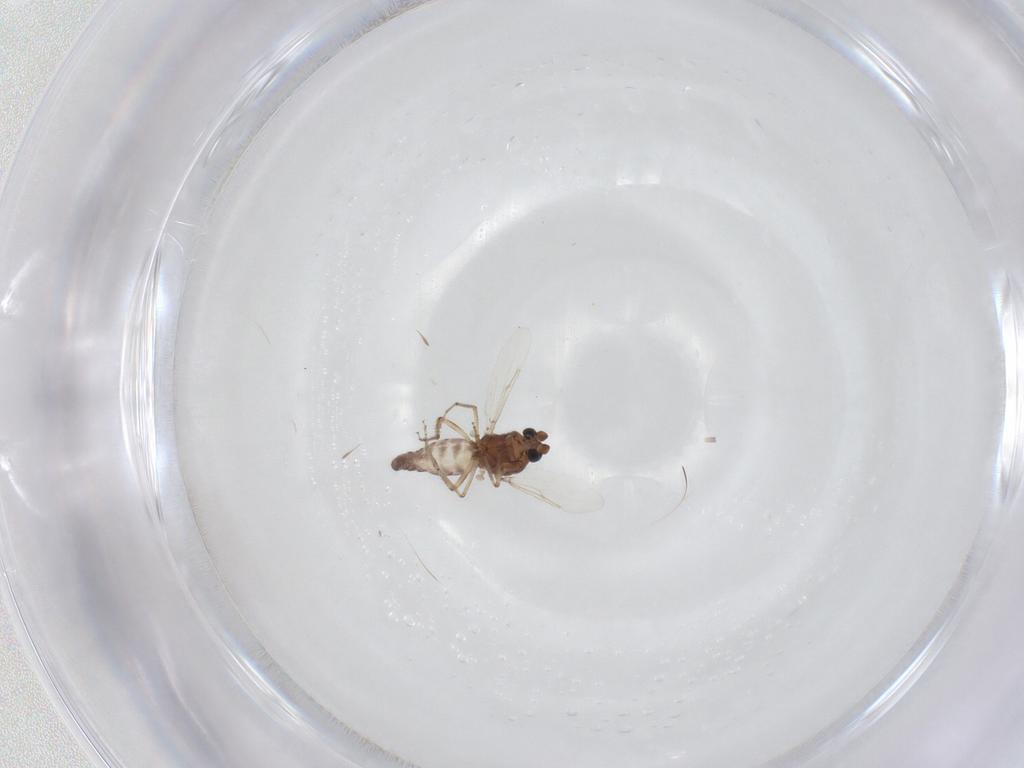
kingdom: Animalia
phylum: Arthropoda
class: Insecta
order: Diptera
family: Ceratopogonidae
